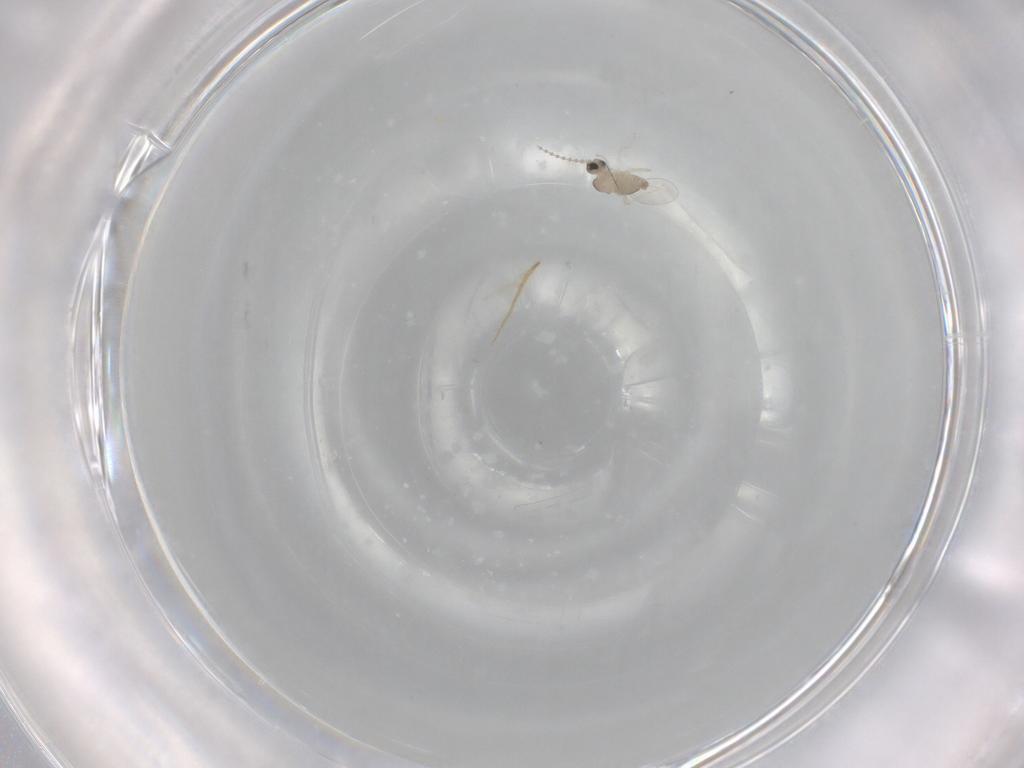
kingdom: Animalia
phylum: Arthropoda
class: Insecta
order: Diptera
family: Cecidomyiidae
